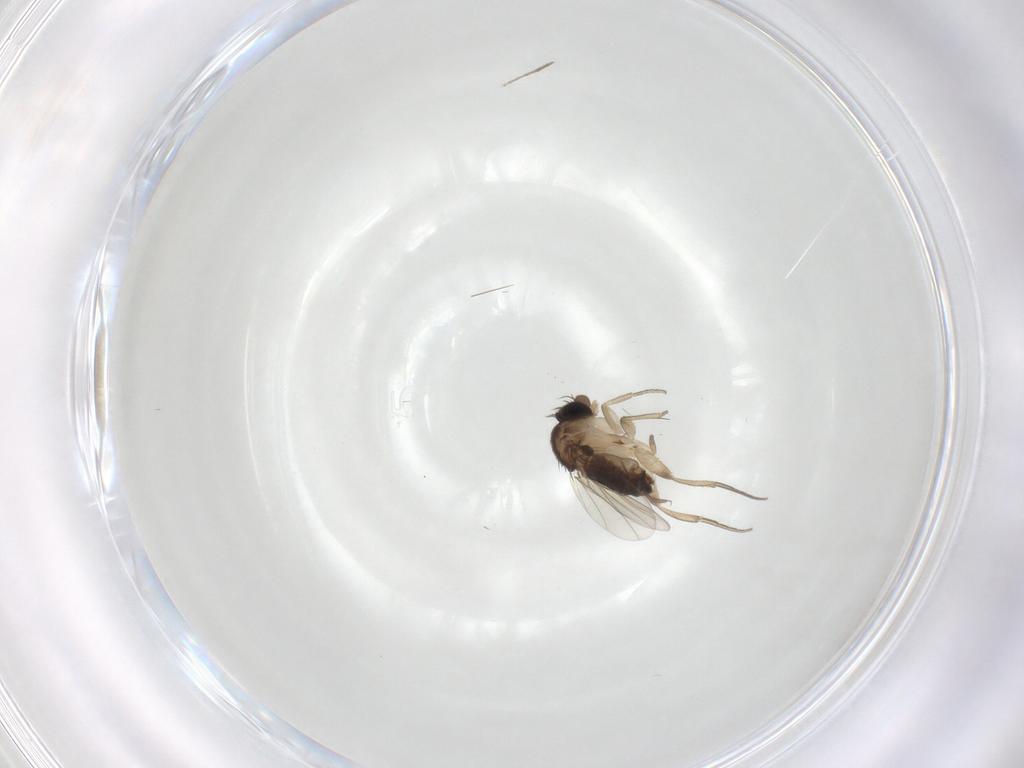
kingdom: Animalia
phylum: Arthropoda
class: Insecta
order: Diptera
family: Chironomidae
